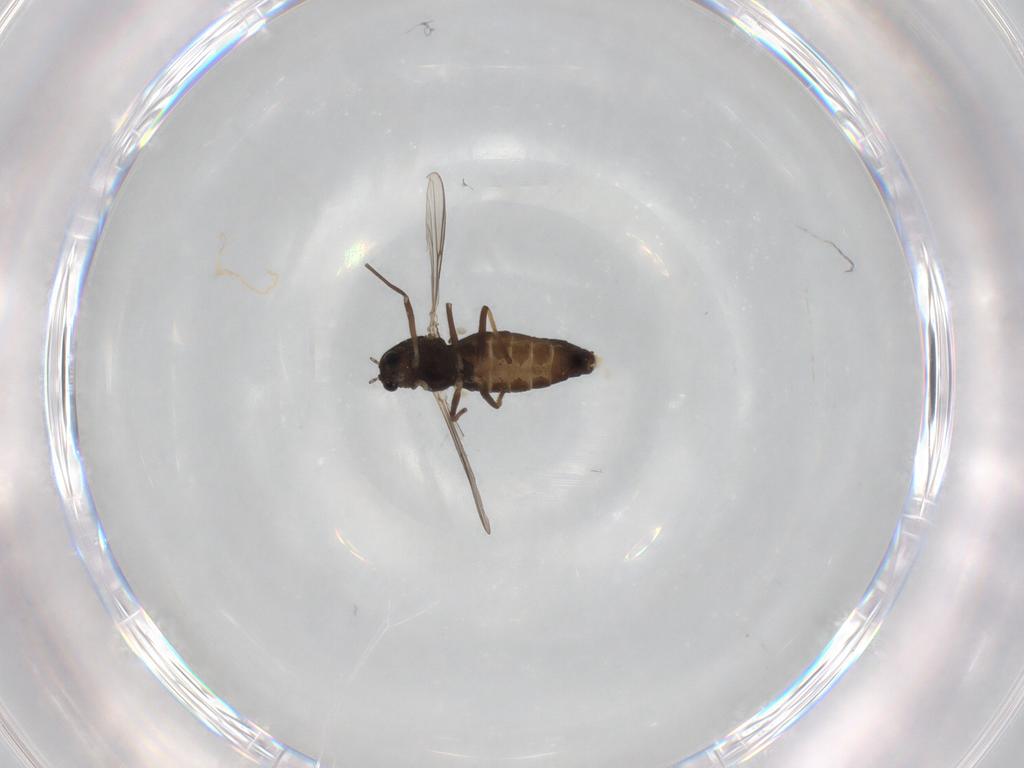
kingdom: Animalia
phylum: Arthropoda
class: Insecta
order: Diptera
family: Chironomidae
